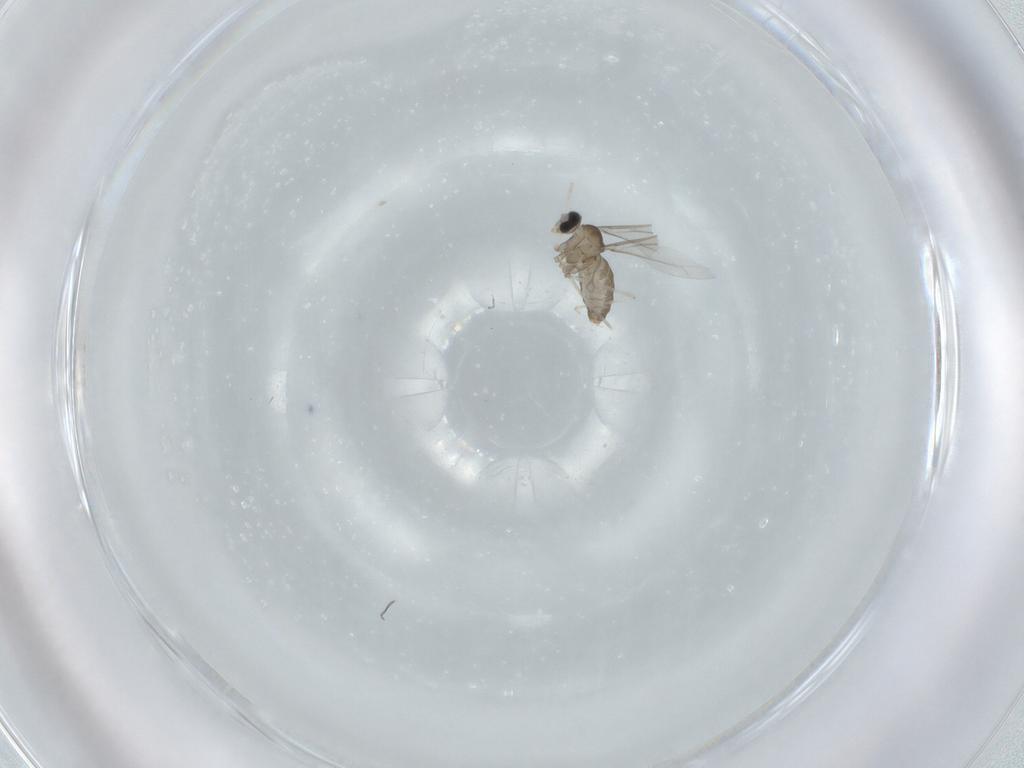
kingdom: Animalia
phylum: Arthropoda
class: Insecta
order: Diptera
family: Cecidomyiidae
